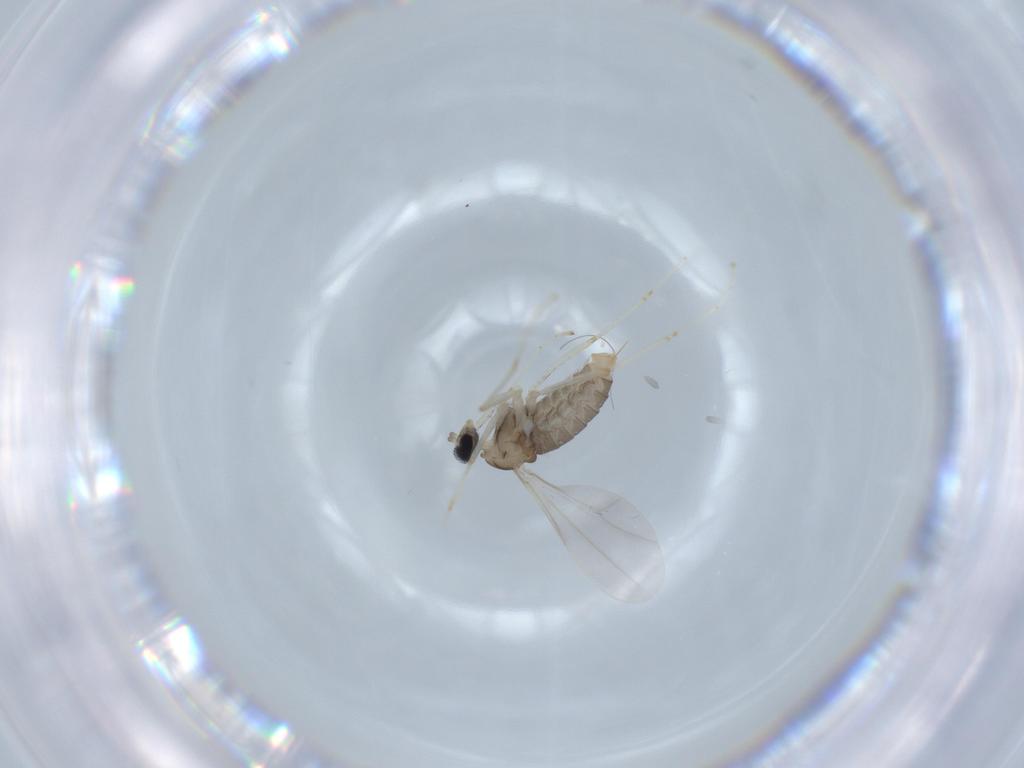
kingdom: Animalia
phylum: Arthropoda
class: Insecta
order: Diptera
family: Cecidomyiidae
